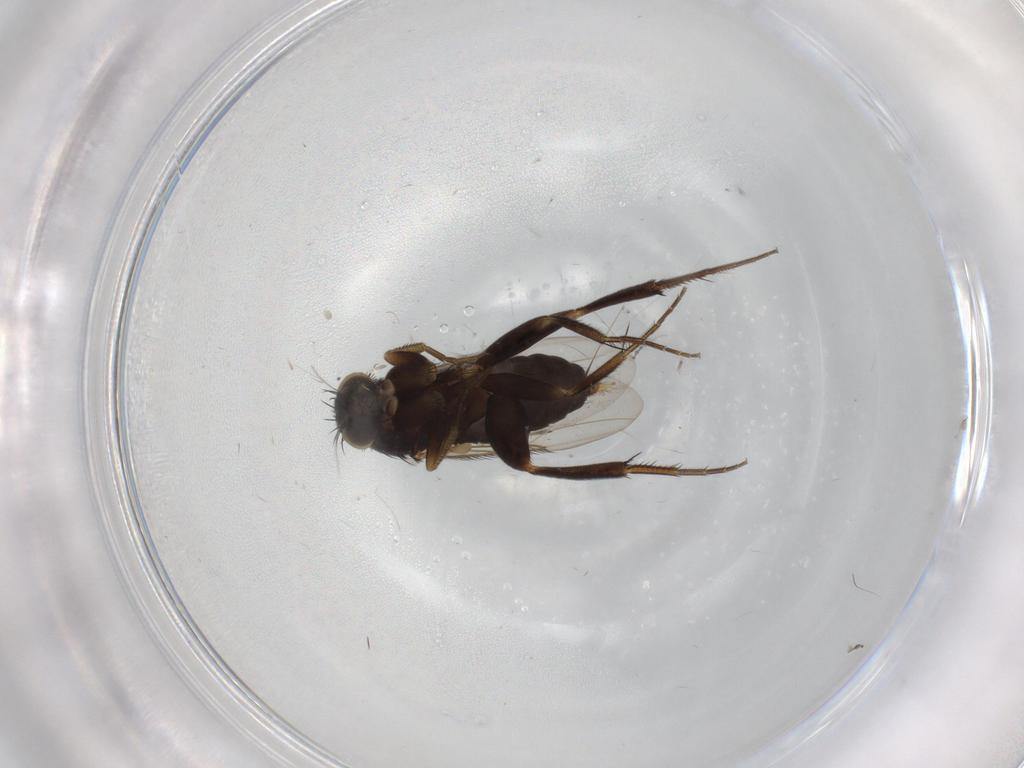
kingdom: Animalia
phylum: Arthropoda
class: Insecta
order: Diptera
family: Phoridae
